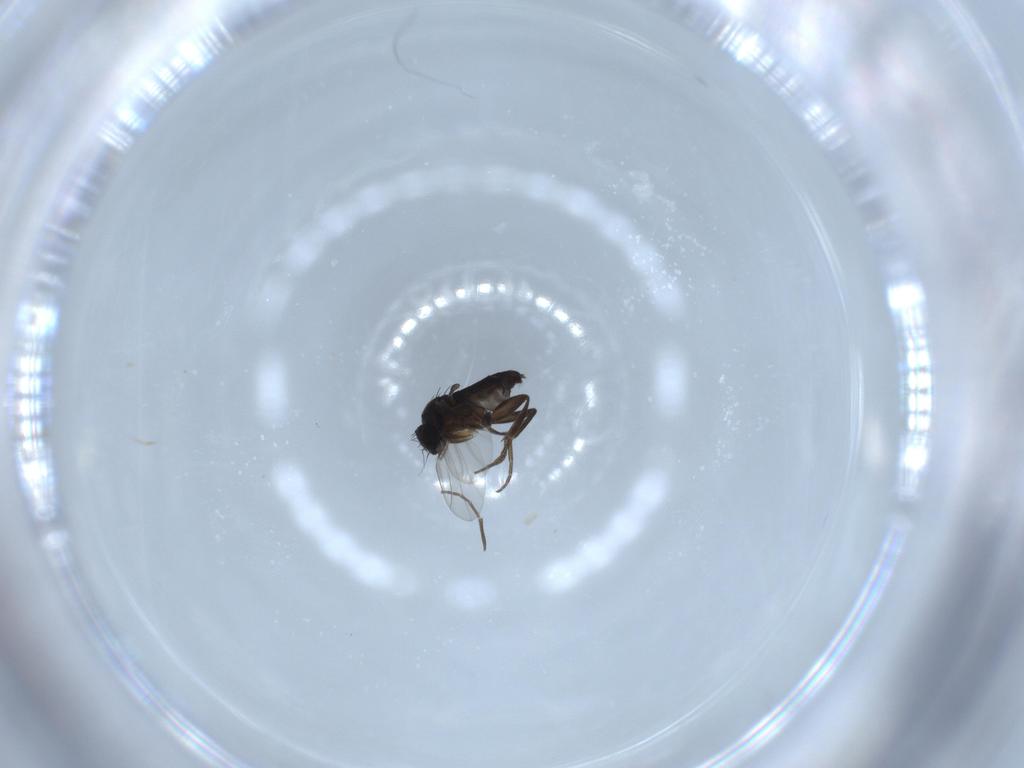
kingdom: Animalia
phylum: Arthropoda
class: Insecta
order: Diptera
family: Phoridae
